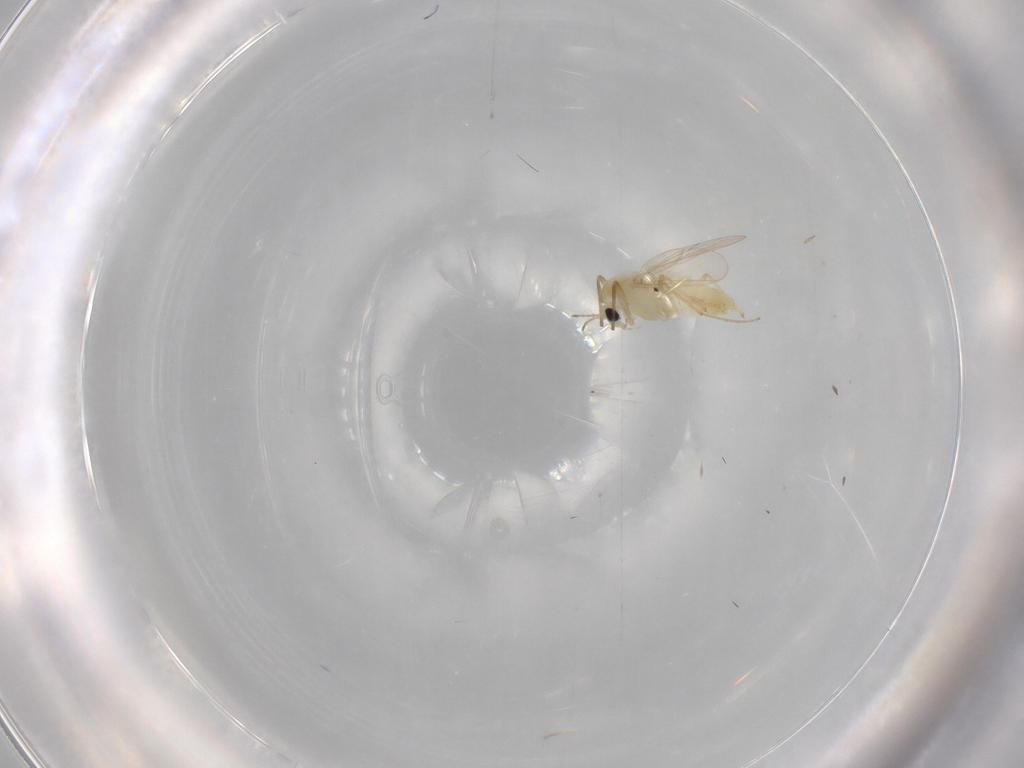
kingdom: Animalia
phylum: Arthropoda
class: Insecta
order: Diptera
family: Chironomidae
